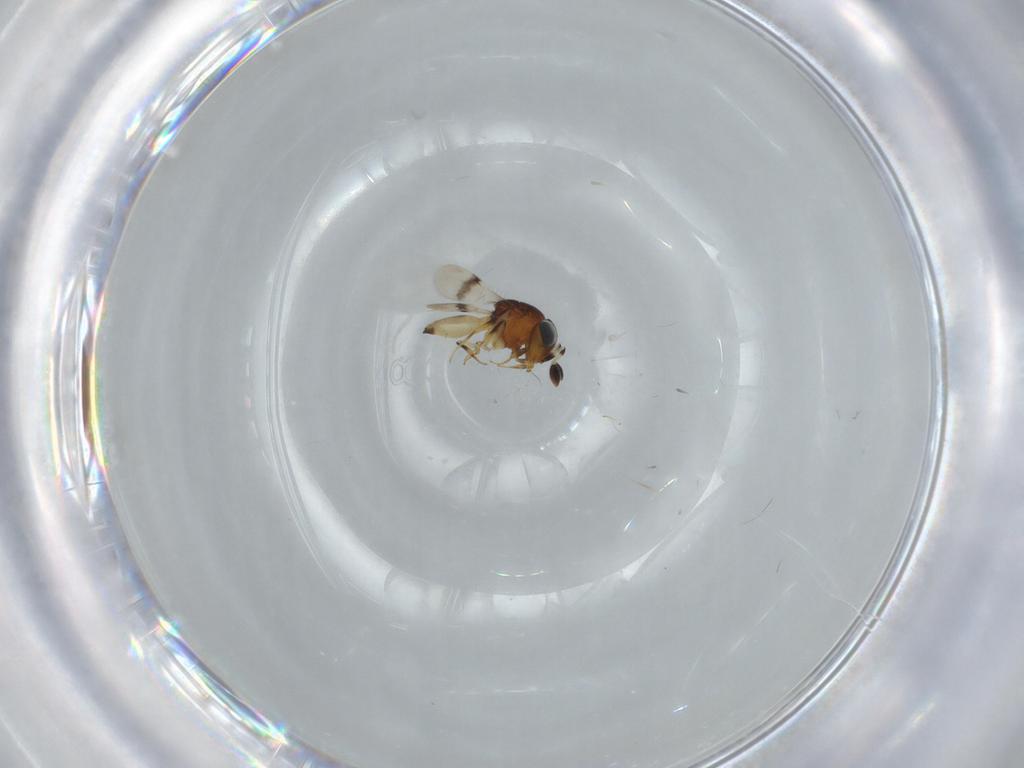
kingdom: Animalia
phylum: Arthropoda
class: Arachnida
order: Araneae
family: Pholcidae
